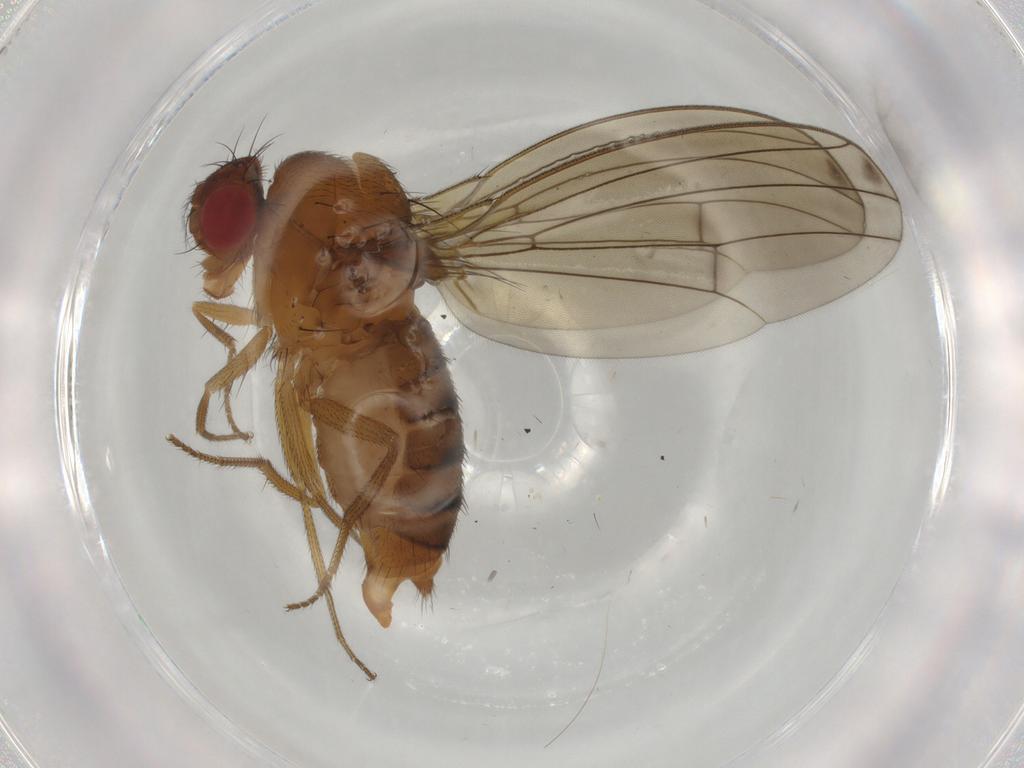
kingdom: Animalia
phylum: Arthropoda
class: Insecta
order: Diptera
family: Drosophilidae
